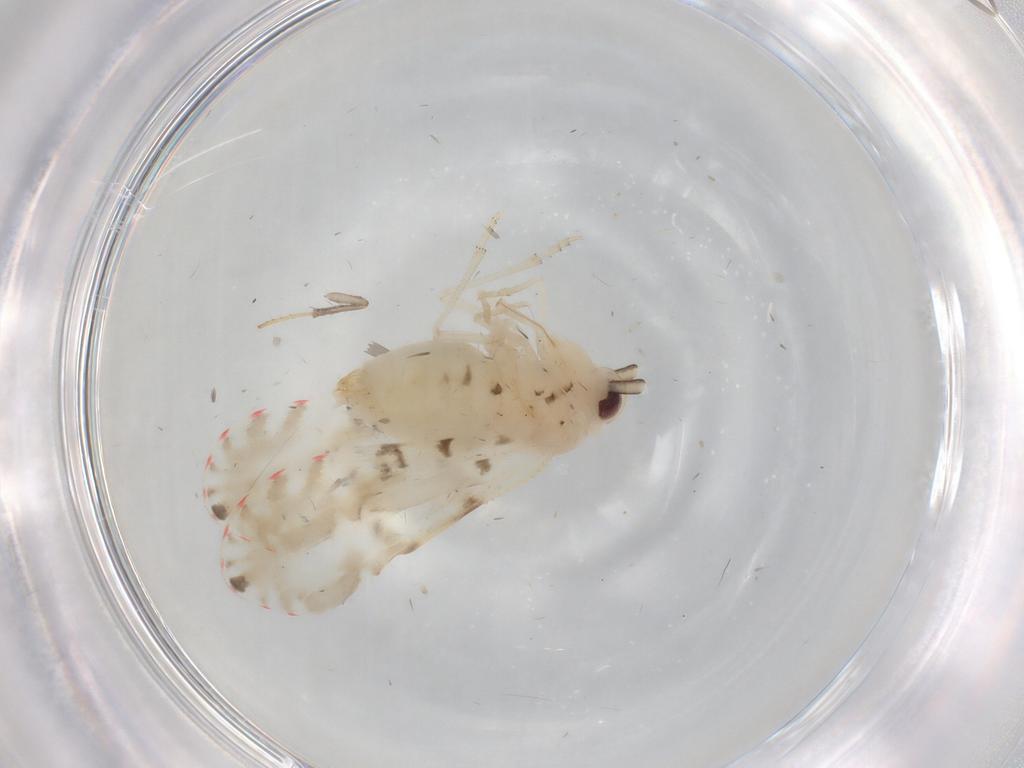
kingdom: Animalia
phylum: Arthropoda
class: Insecta
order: Hemiptera
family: Derbidae
